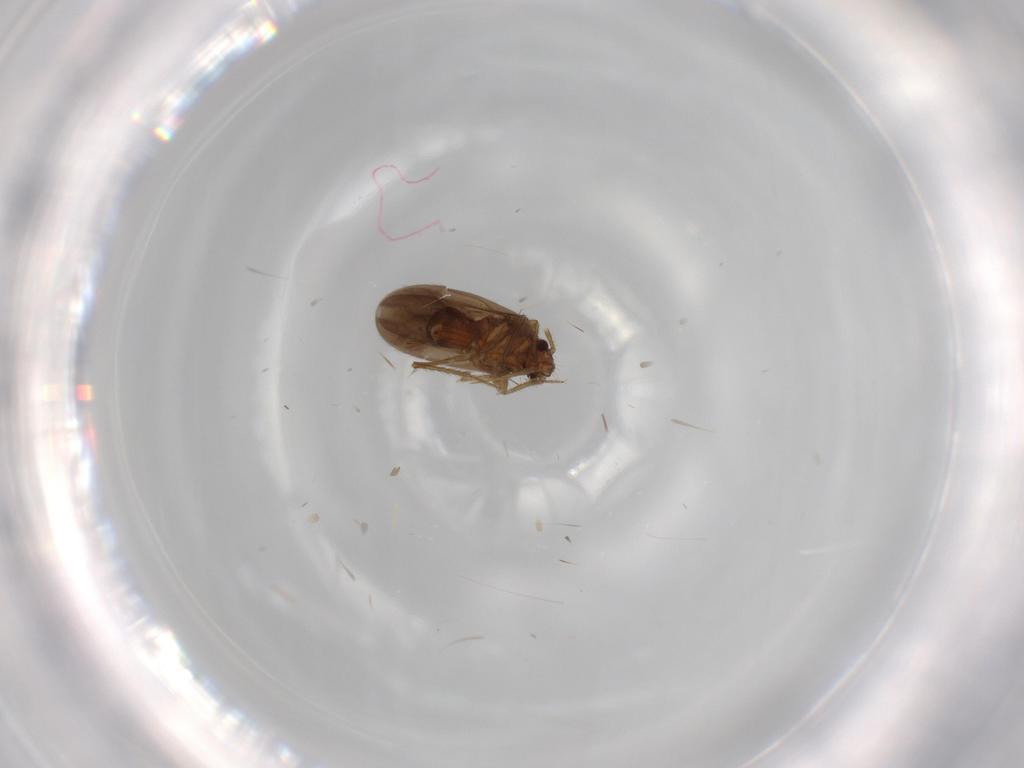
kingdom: Animalia
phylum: Arthropoda
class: Insecta
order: Hemiptera
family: Ceratocombidae
